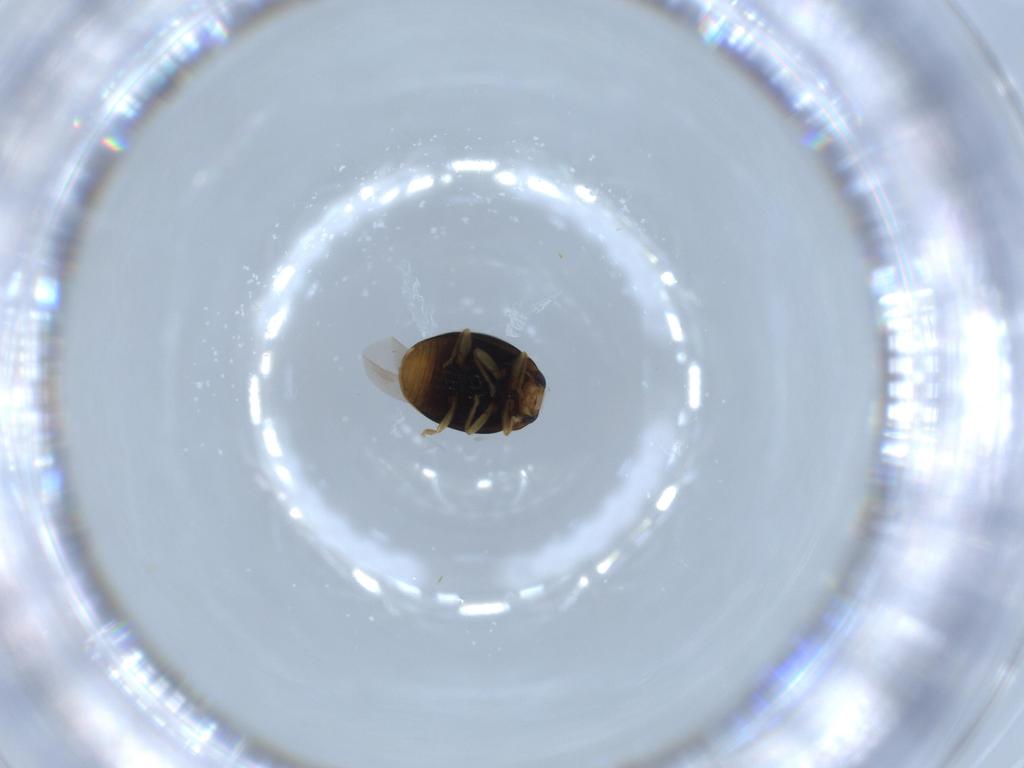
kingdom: Animalia
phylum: Arthropoda
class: Insecta
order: Coleoptera
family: Coccinellidae
